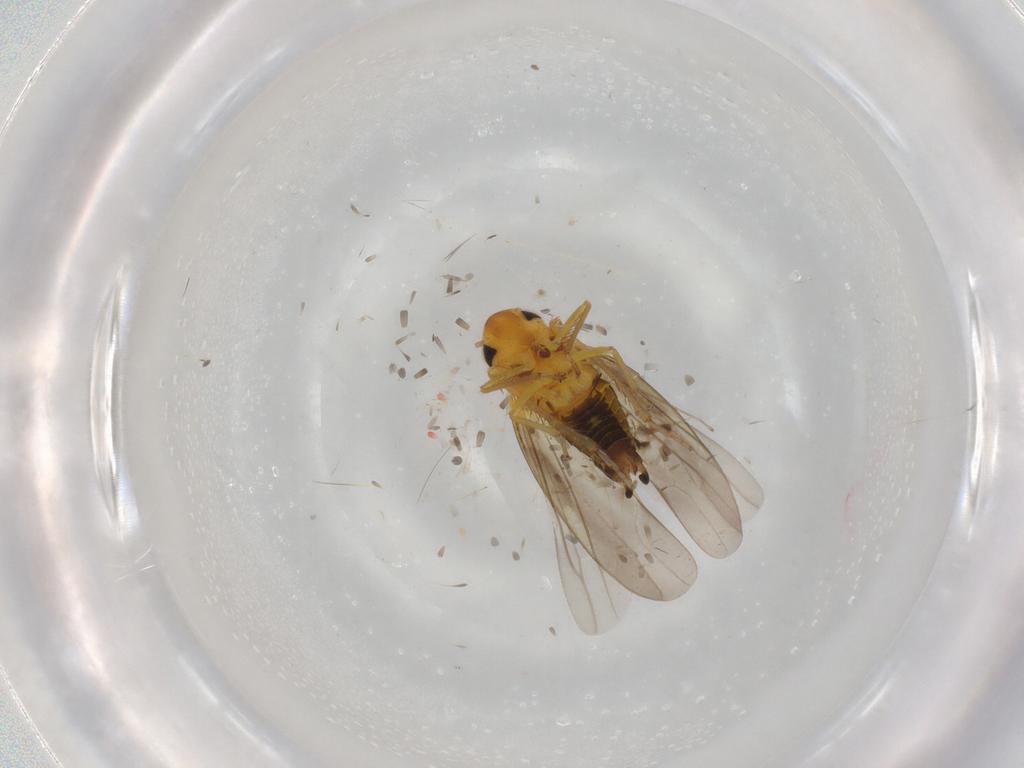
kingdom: Animalia
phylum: Arthropoda
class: Insecta
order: Hemiptera
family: Cicadellidae
